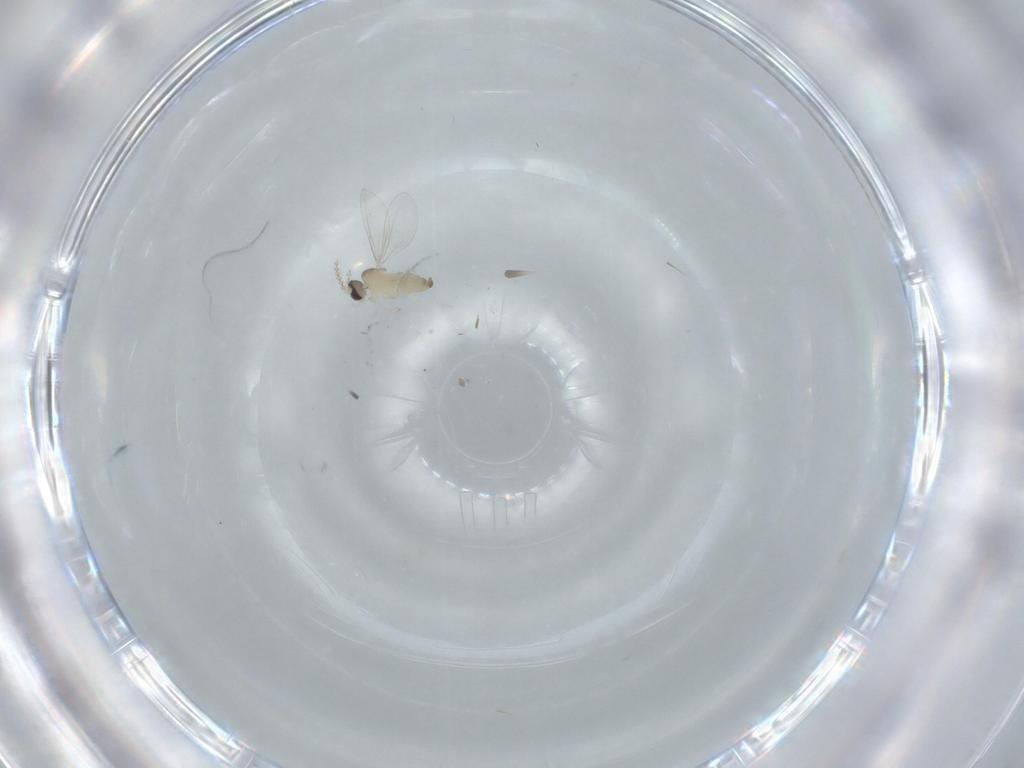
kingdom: Animalia
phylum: Arthropoda
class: Insecta
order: Diptera
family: Cecidomyiidae
